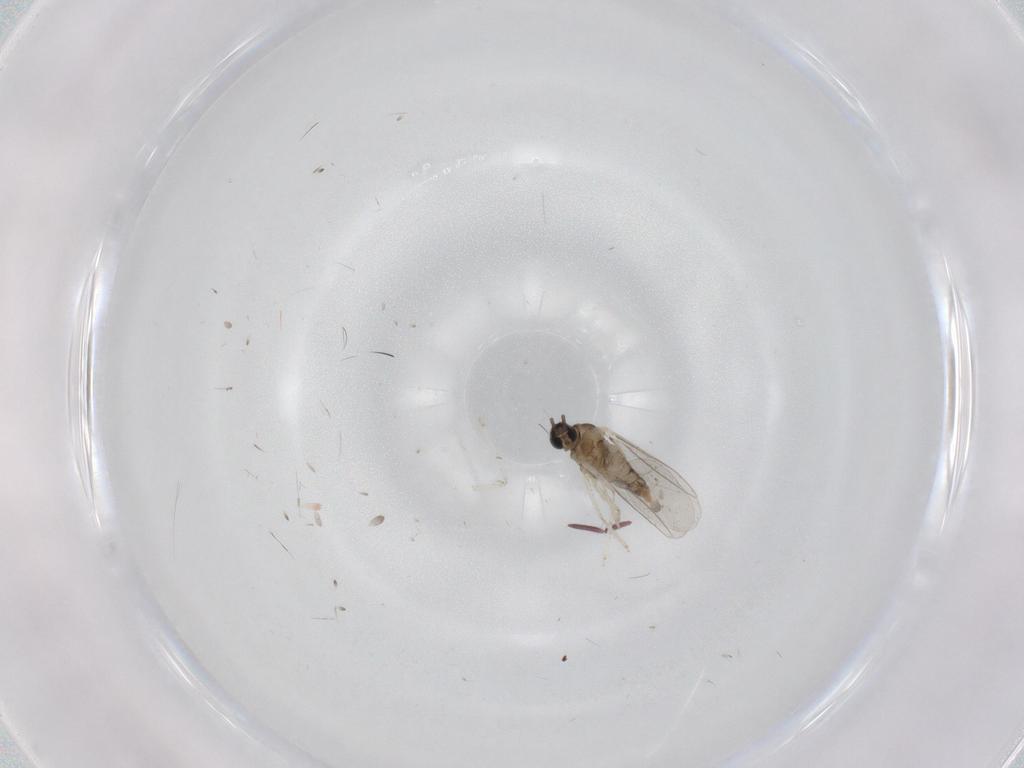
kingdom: Animalia
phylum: Arthropoda
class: Insecta
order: Diptera
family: Cecidomyiidae
